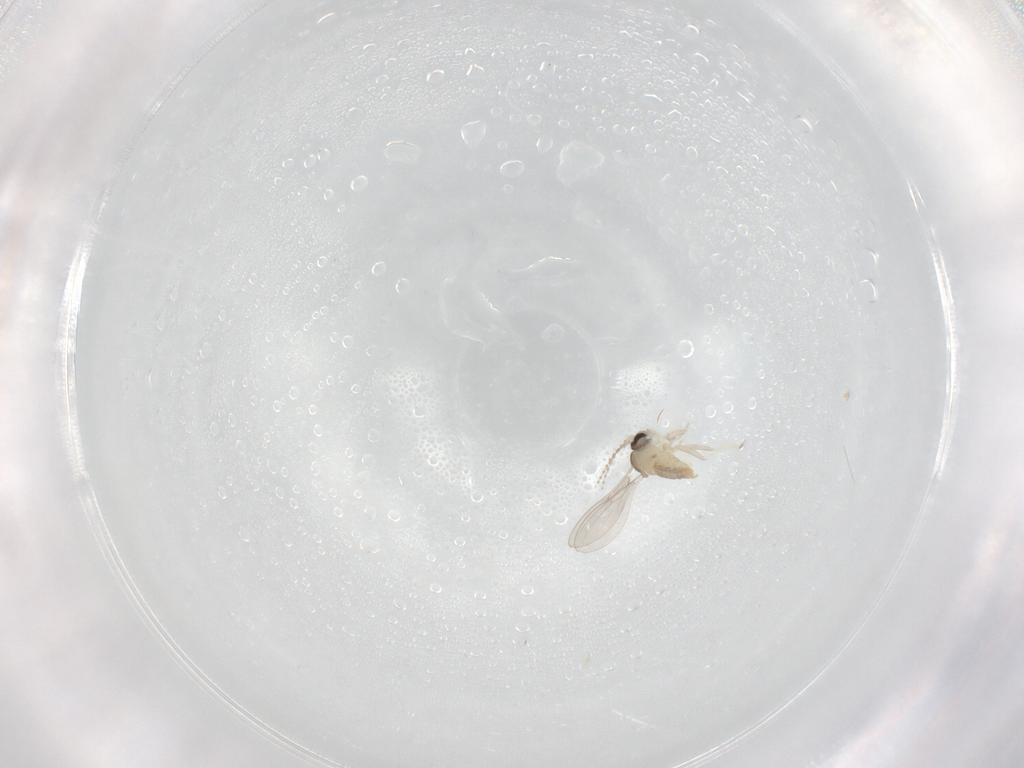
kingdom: Animalia
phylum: Arthropoda
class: Insecta
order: Diptera
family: Cecidomyiidae
